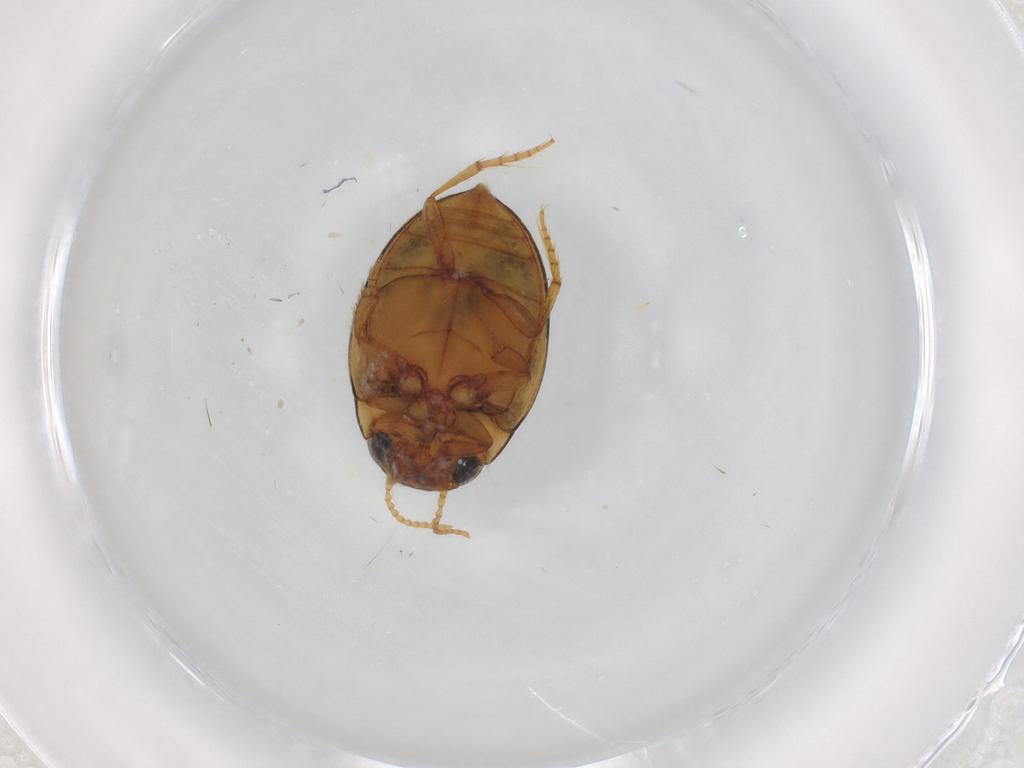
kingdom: Animalia
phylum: Arthropoda
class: Insecta
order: Coleoptera
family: Dytiscidae
